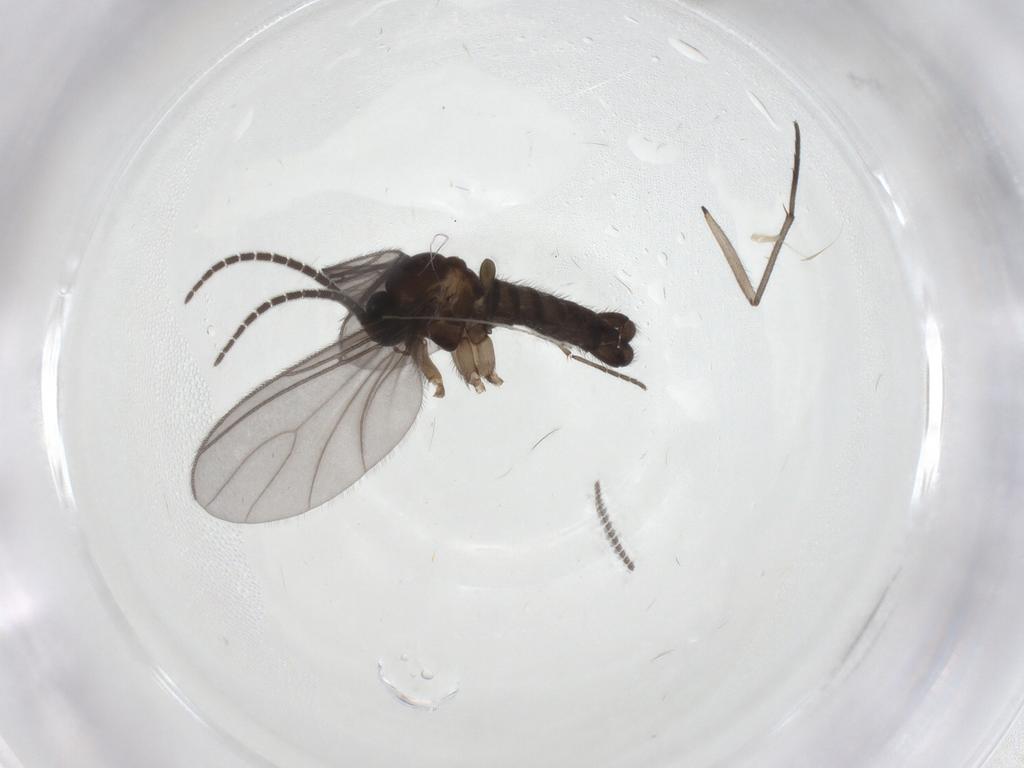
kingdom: Animalia
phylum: Arthropoda
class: Insecta
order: Diptera
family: Sciaridae
